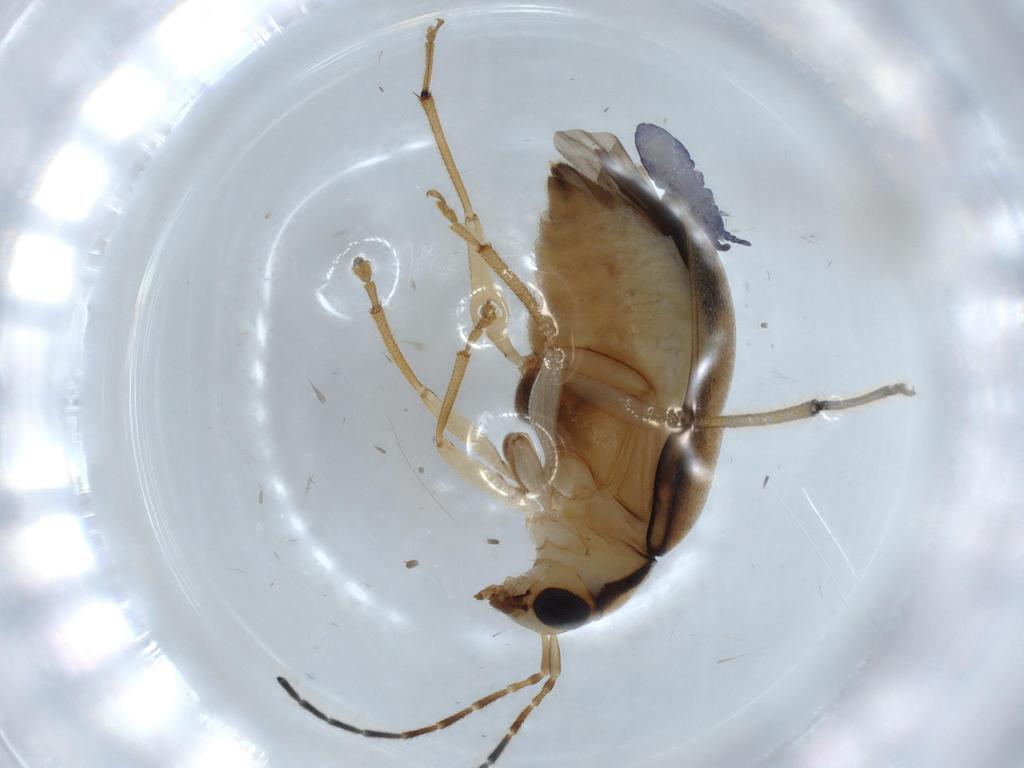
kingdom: Animalia
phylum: Arthropoda
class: Insecta
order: Coleoptera
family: Chrysomelidae
